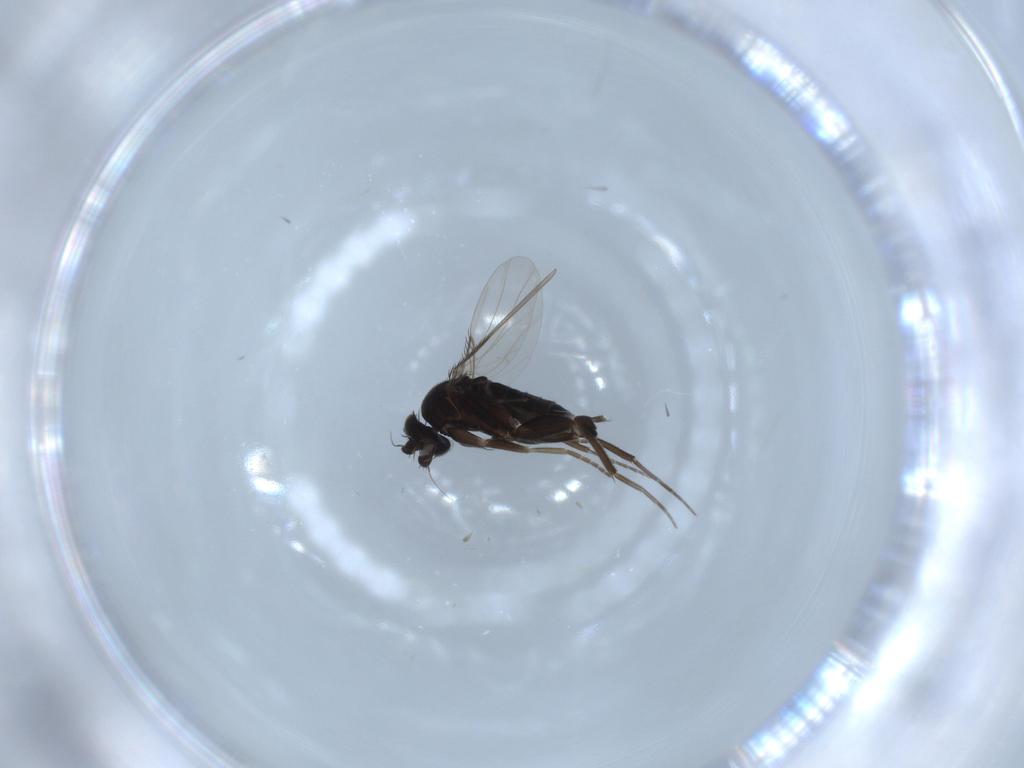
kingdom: Animalia
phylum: Arthropoda
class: Insecta
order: Diptera
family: Phoridae
